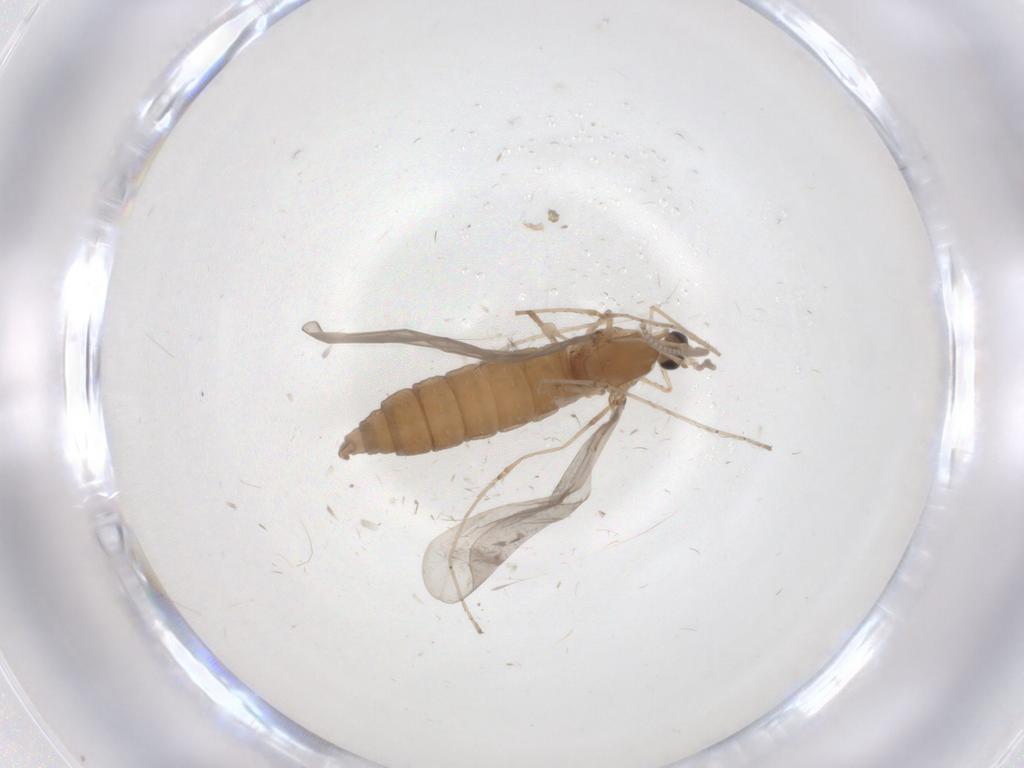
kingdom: Animalia
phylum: Arthropoda
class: Insecta
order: Diptera
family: Cecidomyiidae
